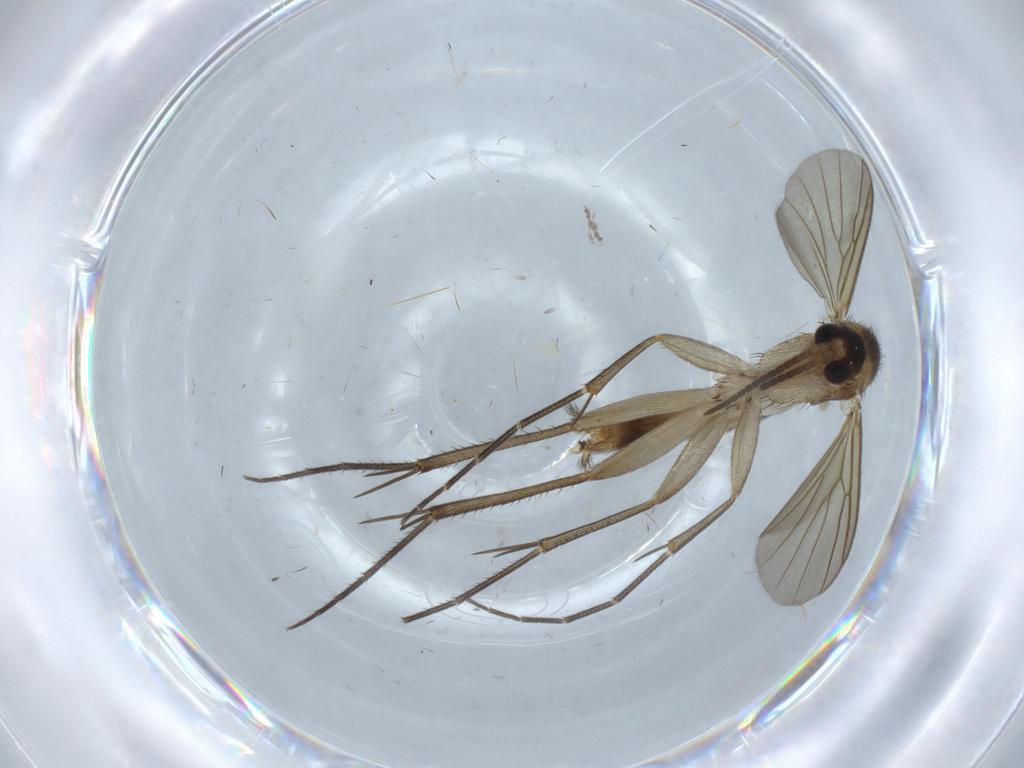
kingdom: Animalia
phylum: Arthropoda
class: Insecta
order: Diptera
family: Mycetophilidae
